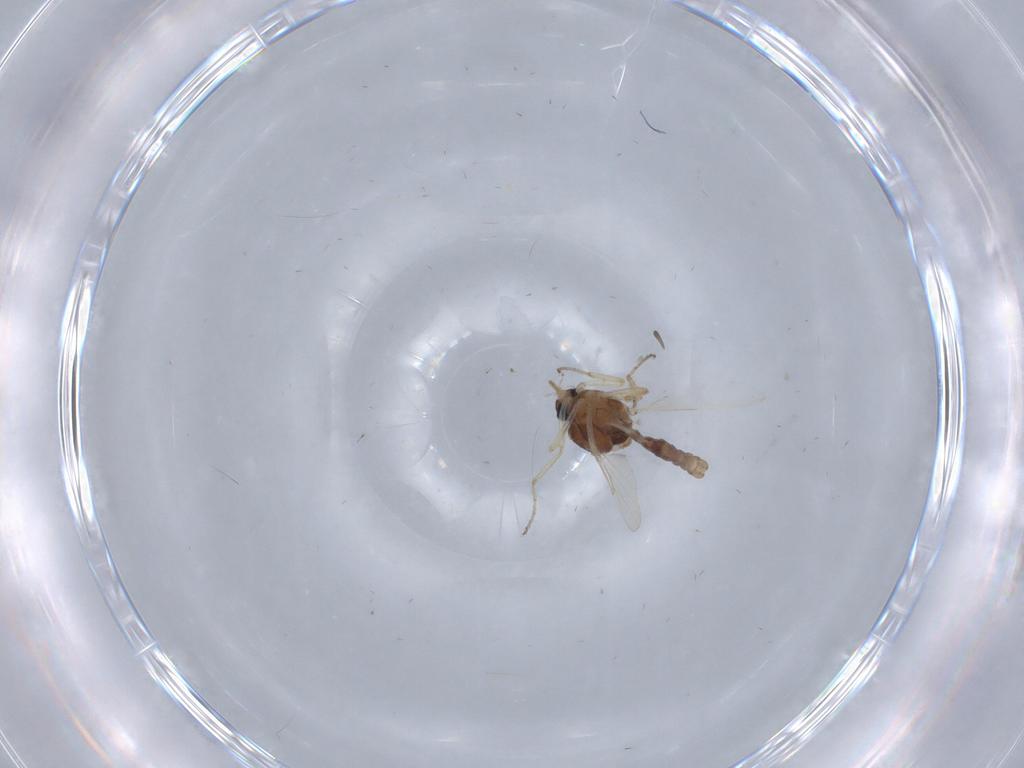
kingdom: Animalia
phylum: Arthropoda
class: Insecta
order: Diptera
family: Ceratopogonidae
